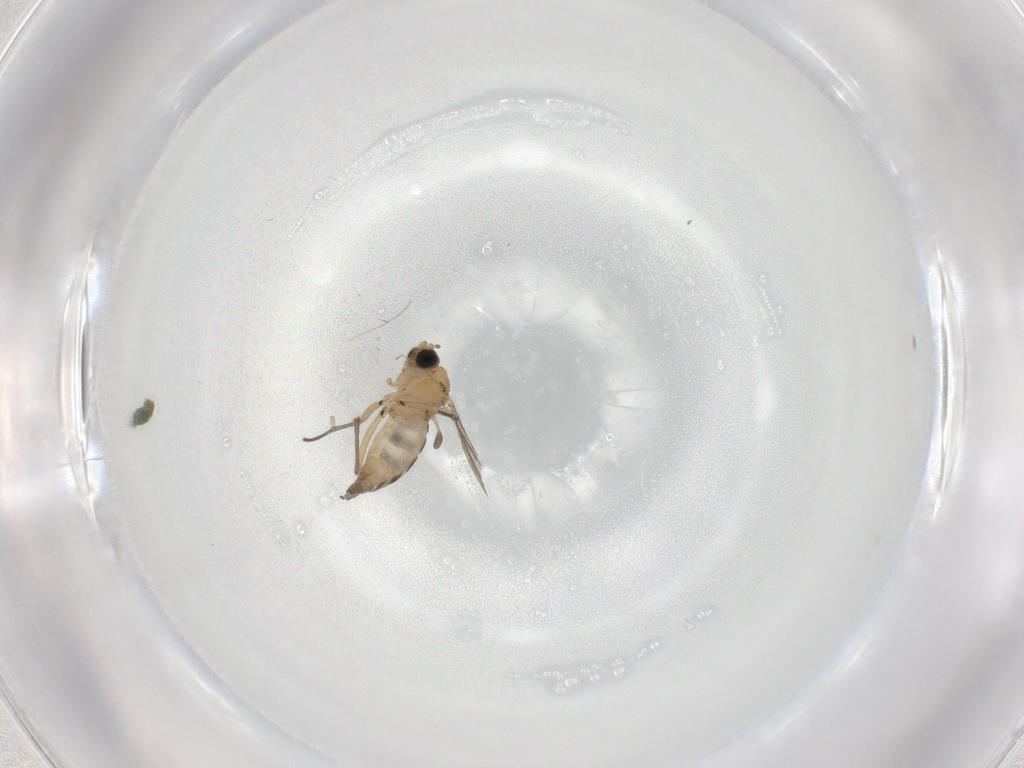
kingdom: Animalia
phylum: Arthropoda
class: Insecta
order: Diptera
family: Cecidomyiidae
